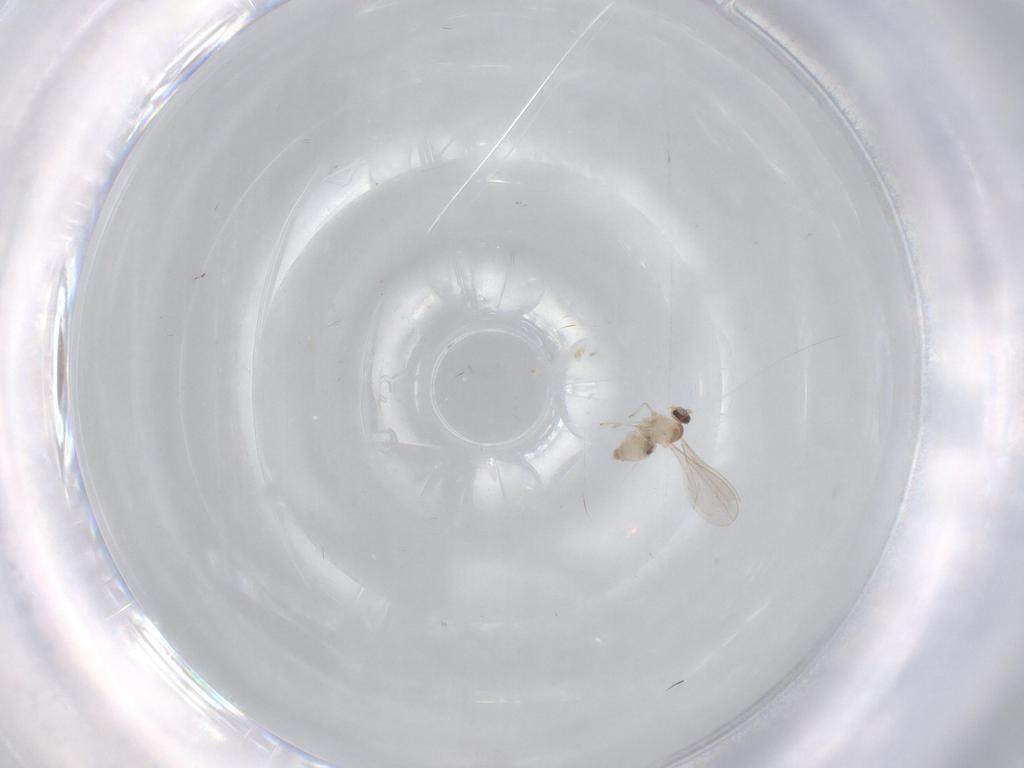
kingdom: Animalia
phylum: Arthropoda
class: Insecta
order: Diptera
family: Cecidomyiidae
